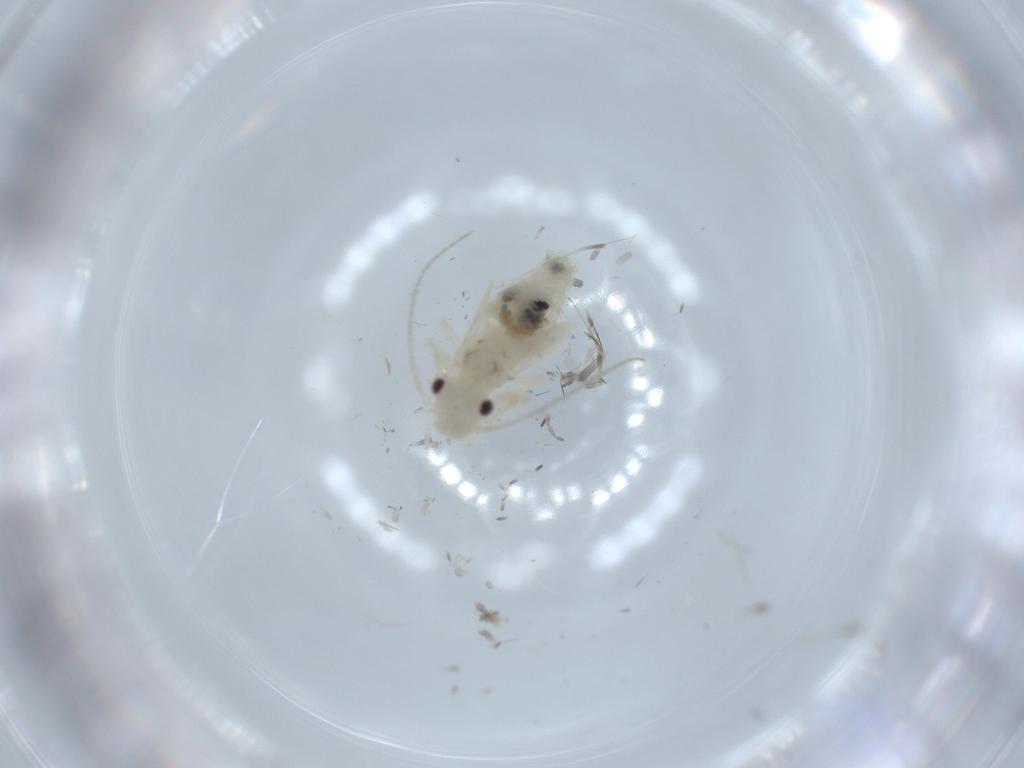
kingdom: Animalia
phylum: Arthropoda
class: Insecta
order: Psocodea
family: Caeciliusidae
